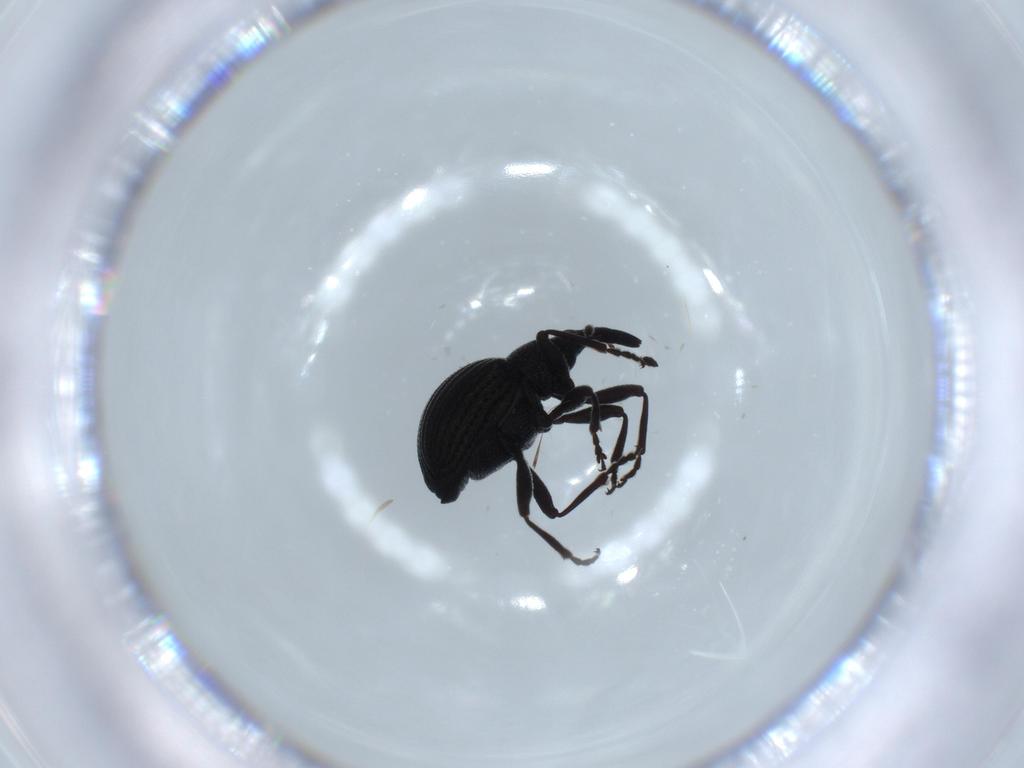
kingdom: Animalia
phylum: Arthropoda
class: Insecta
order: Coleoptera
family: Brentidae
